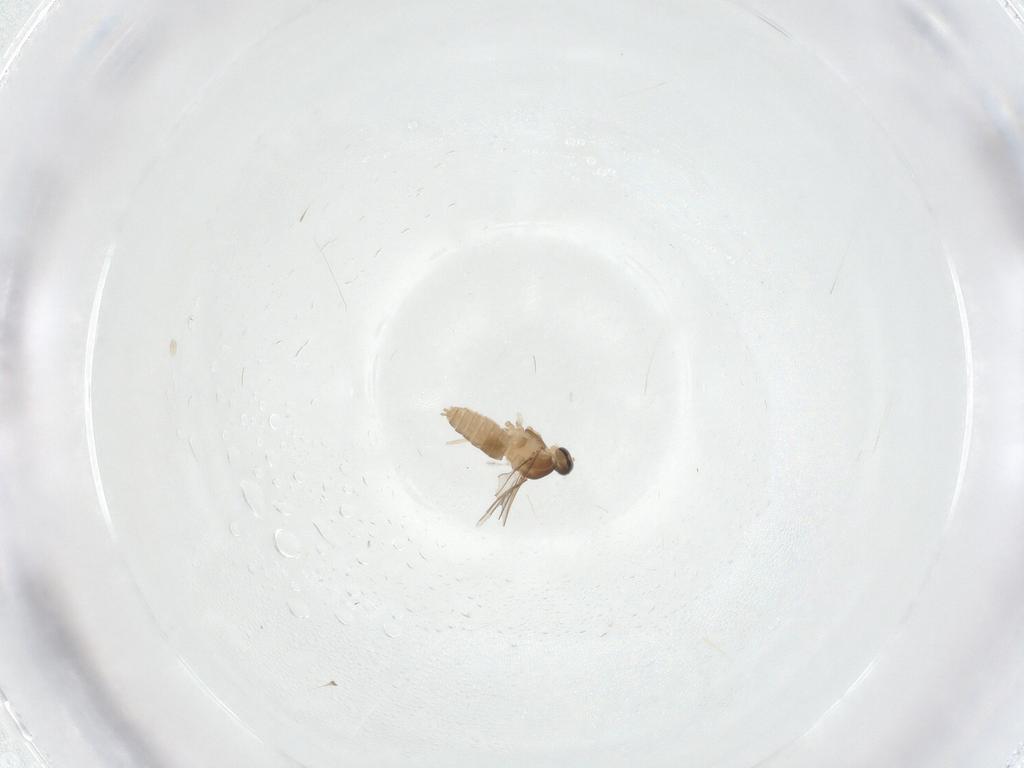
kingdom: Animalia
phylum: Arthropoda
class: Insecta
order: Diptera
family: Cecidomyiidae
